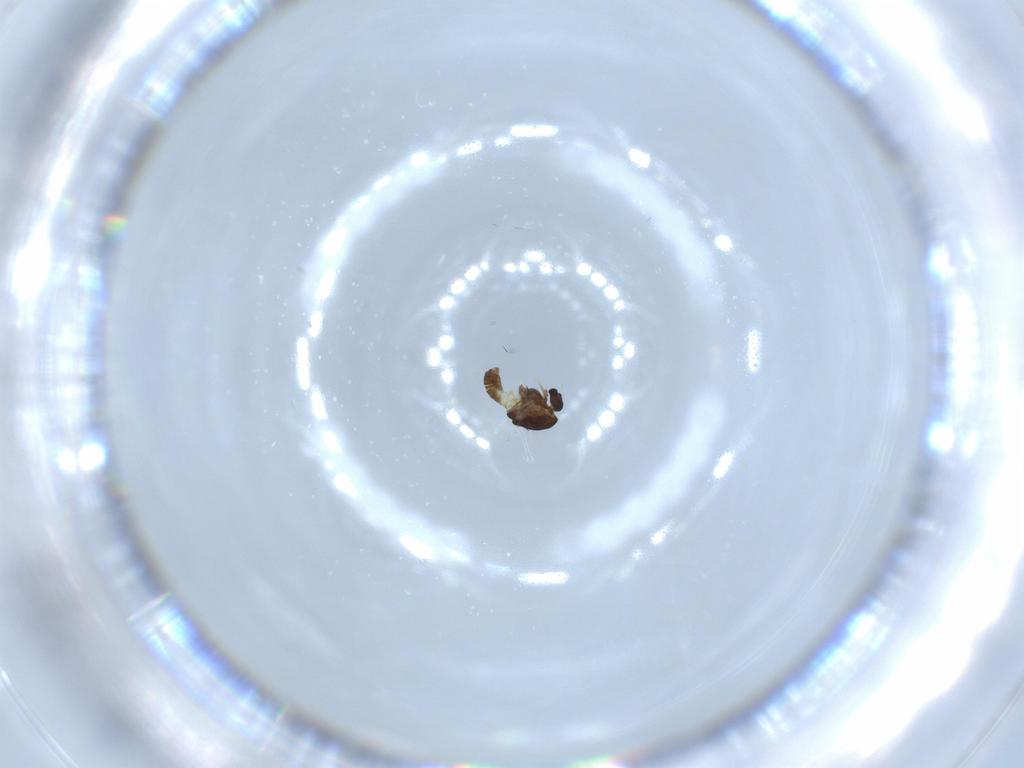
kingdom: Animalia
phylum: Arthropoda
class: Insecta
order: Diptera
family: Chironomidae
